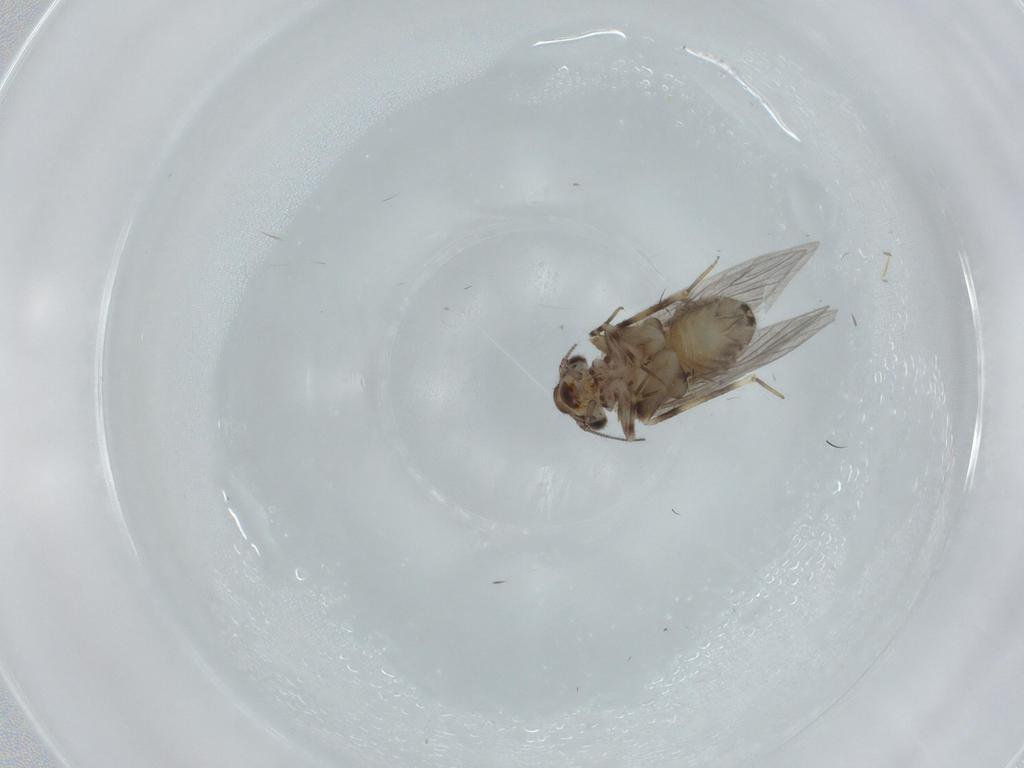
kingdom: Animalia
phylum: Arthropoda
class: Insecta
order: Psocodea
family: Lepidopsocidae
